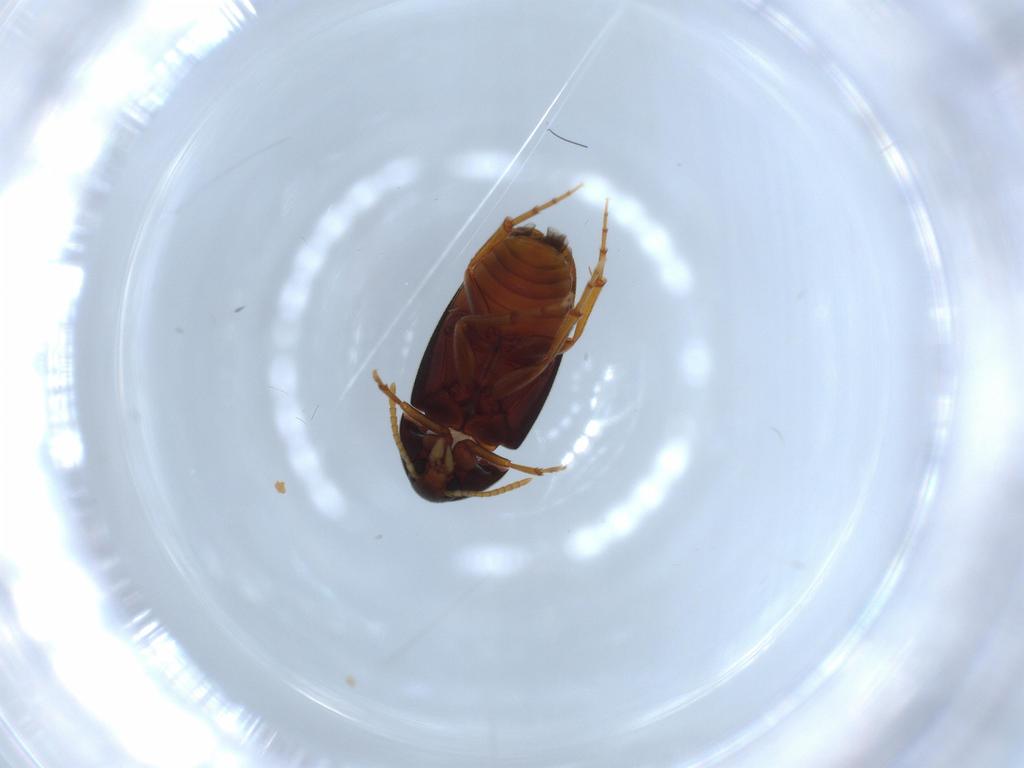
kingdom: Animalia
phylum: Arthropoda
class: Insecta
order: Coleoptera
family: Scraptiidae
